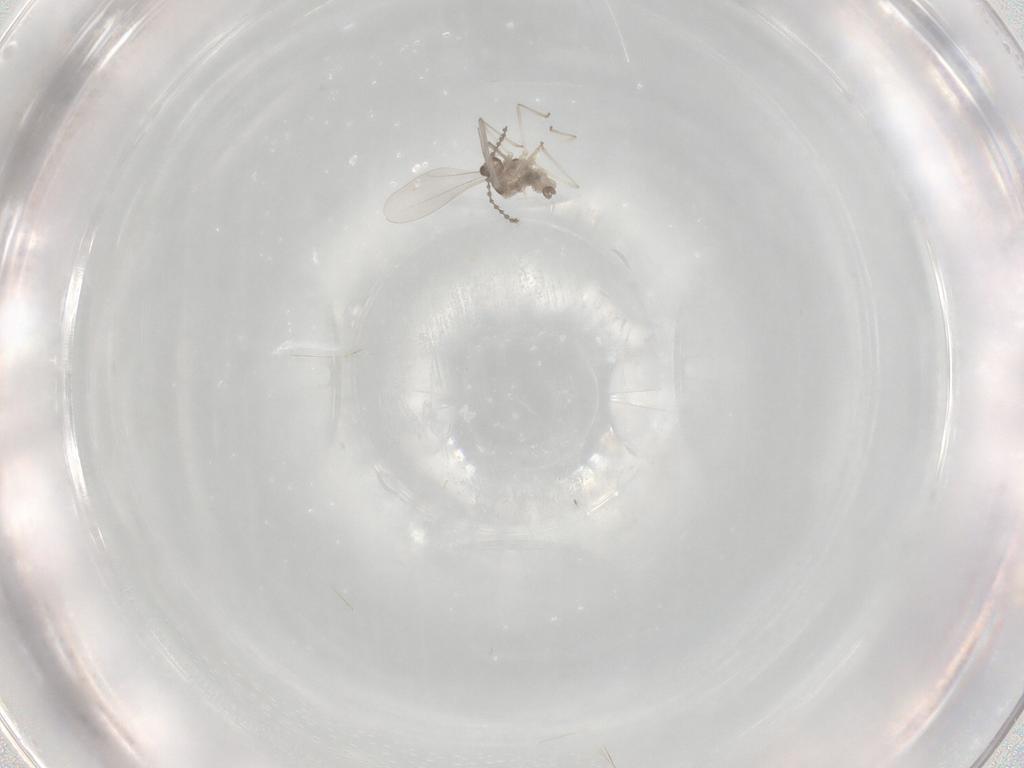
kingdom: Animalia
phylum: Arthropoda
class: Insecta
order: Diptera
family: Cecidomyiidae
